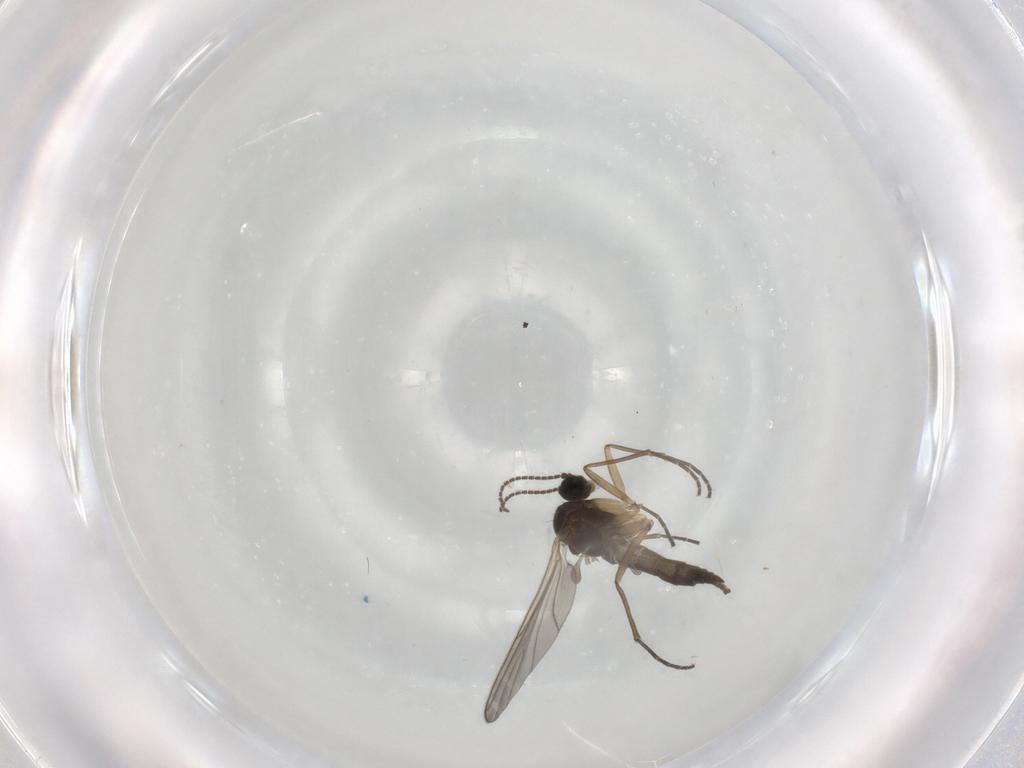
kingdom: Animalia
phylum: Arthropoda
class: Insecta
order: Diptera
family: Sciaridae
